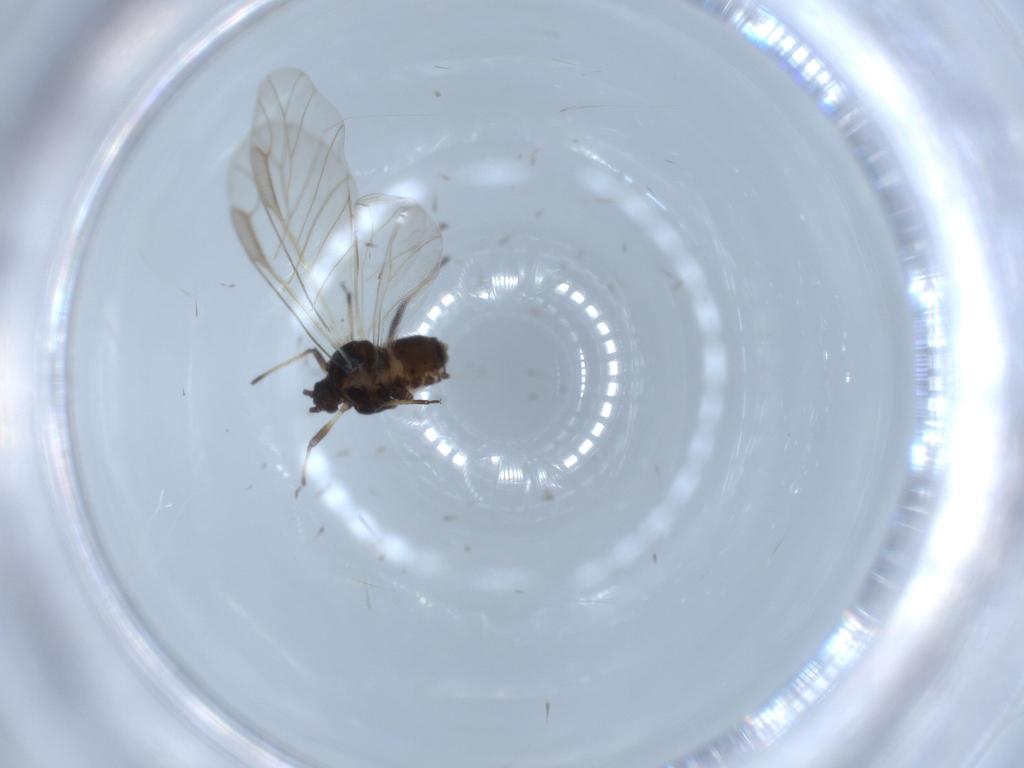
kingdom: Animalia
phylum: Arthropoda
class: Insecta
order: Hemiptera
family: Aphididae
